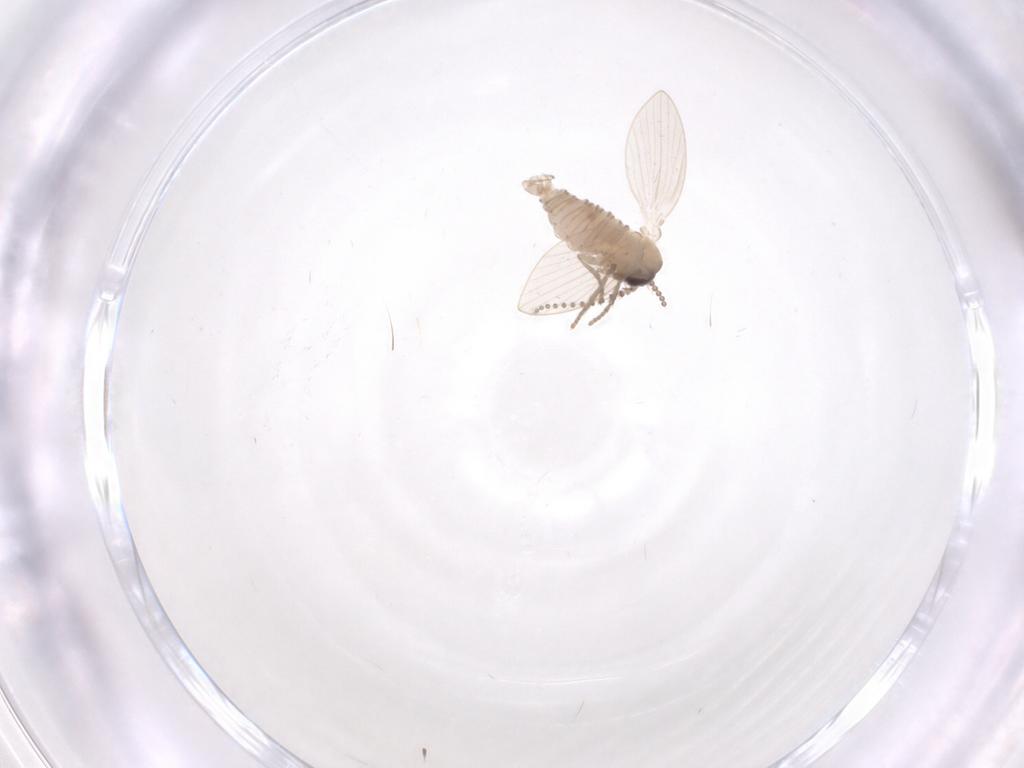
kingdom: Animalia
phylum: Arthropoda
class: Insecta
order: Diptera
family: Psychodidae
